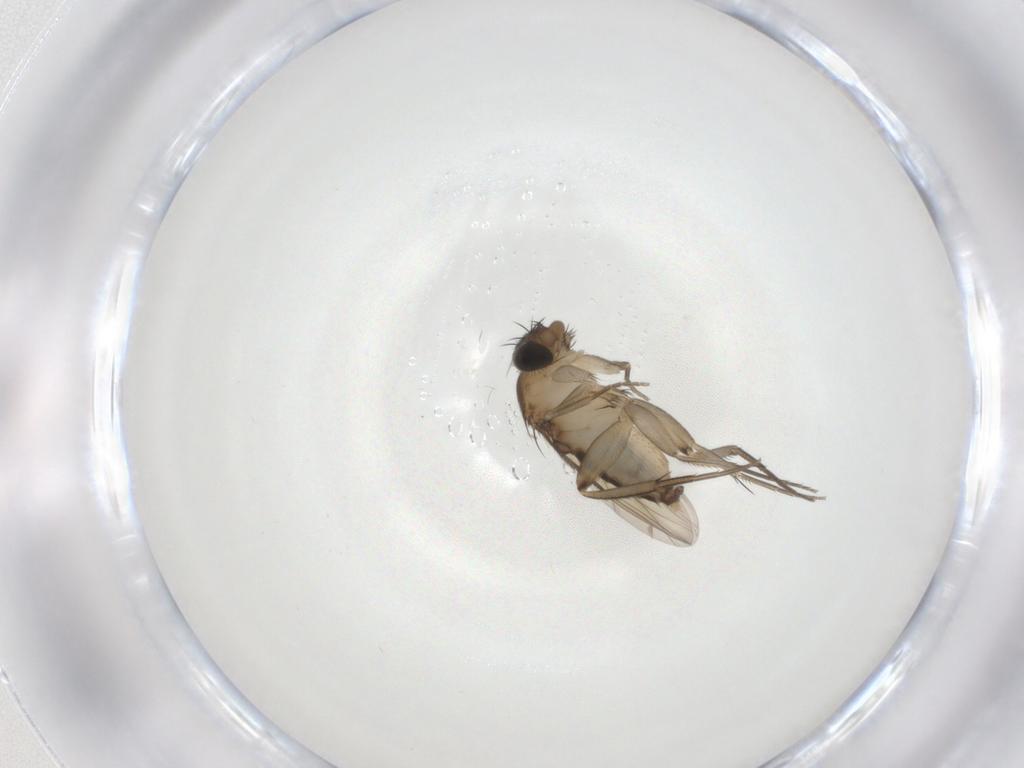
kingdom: Animalia
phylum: Arthropoda
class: Insecta
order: Diptera
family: Phoridae
